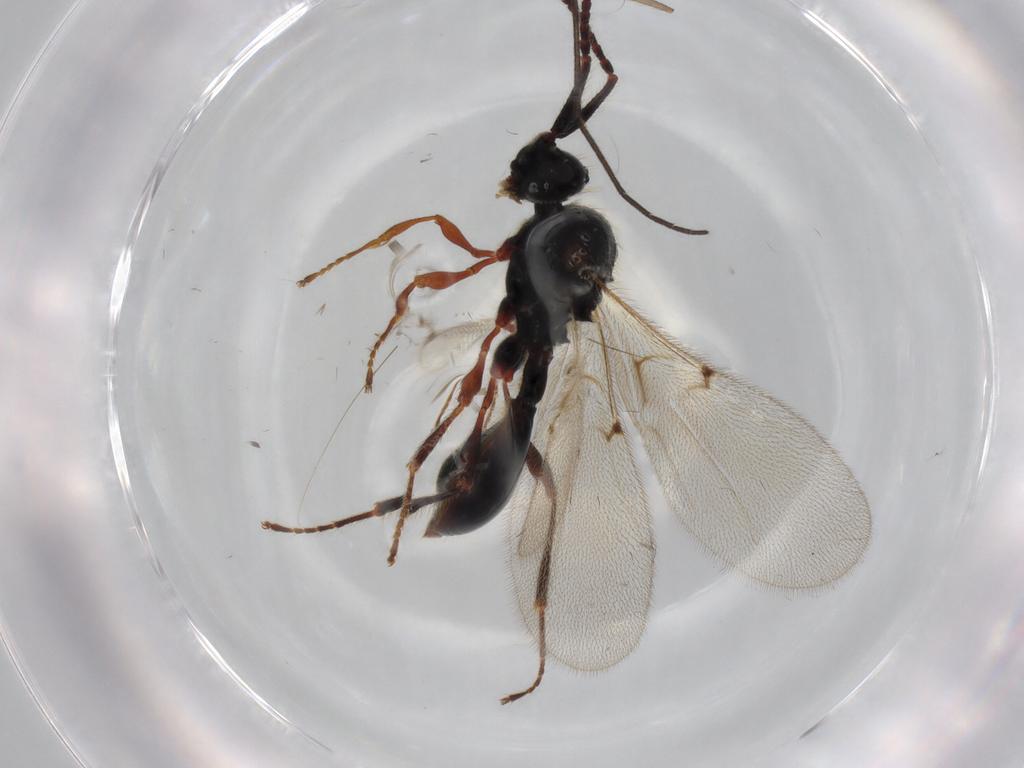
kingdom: Animalia
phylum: Arthropoda
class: Insecta
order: Hymenoptera
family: Diapriidae
